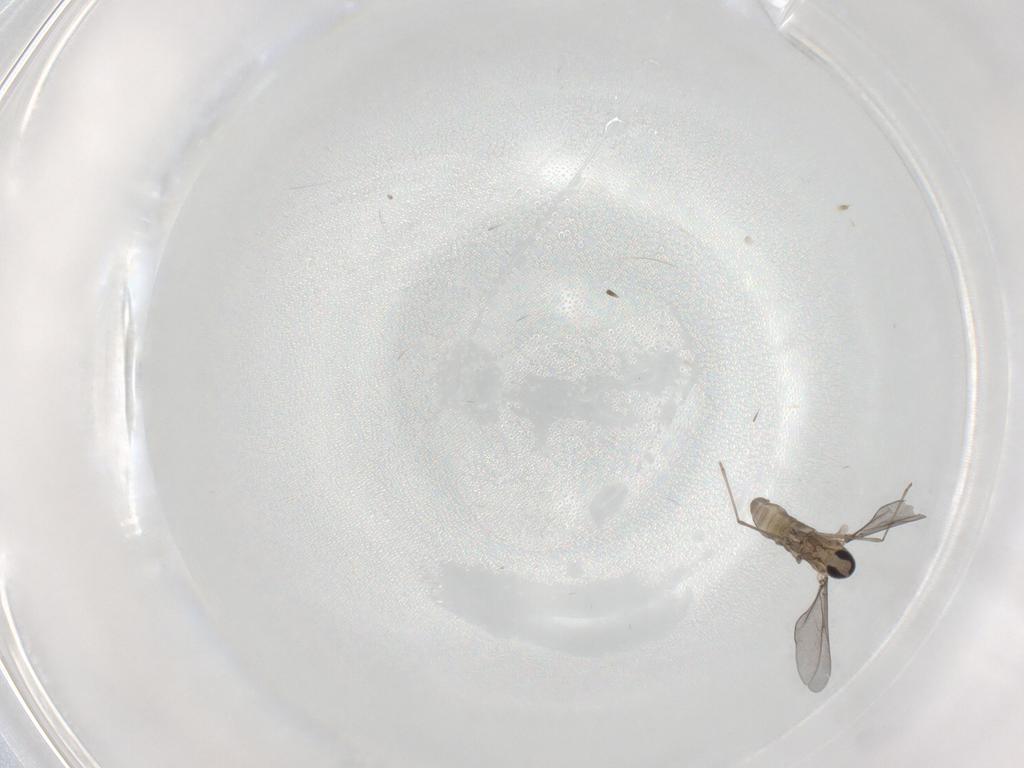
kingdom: Animalia
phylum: Arthropoda
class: Insecta
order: Diptera
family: Cecidomyiidae
